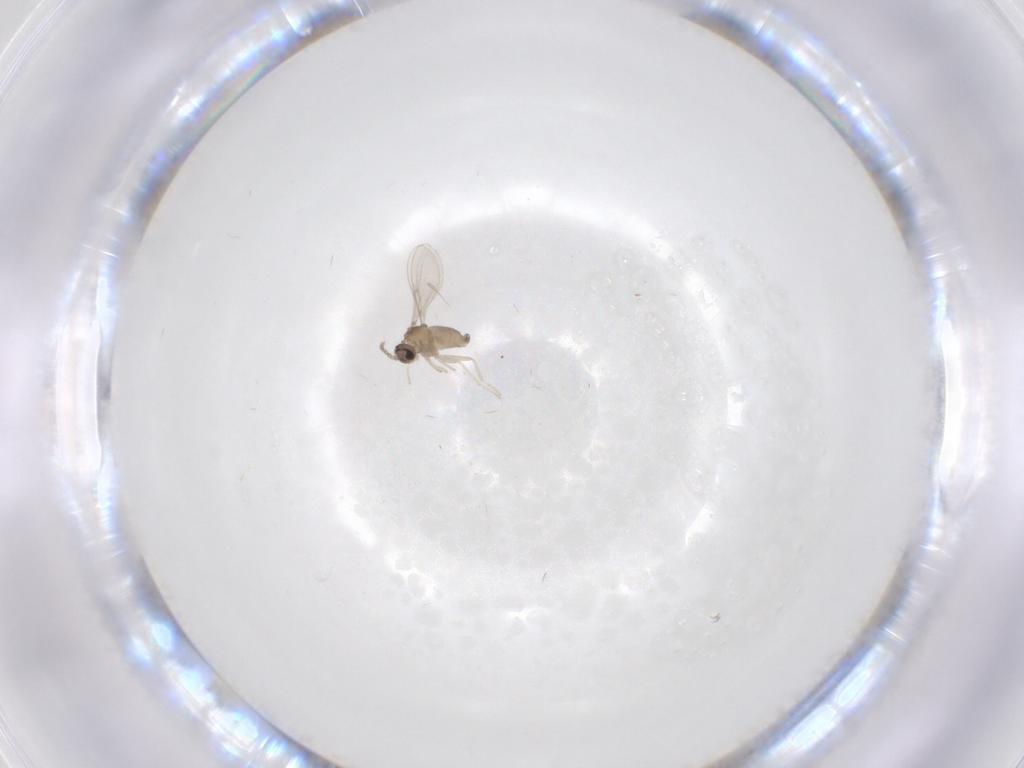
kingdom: Animalia
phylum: Arthropoda
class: Insecta
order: Diptera
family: Cecidomyiidae
